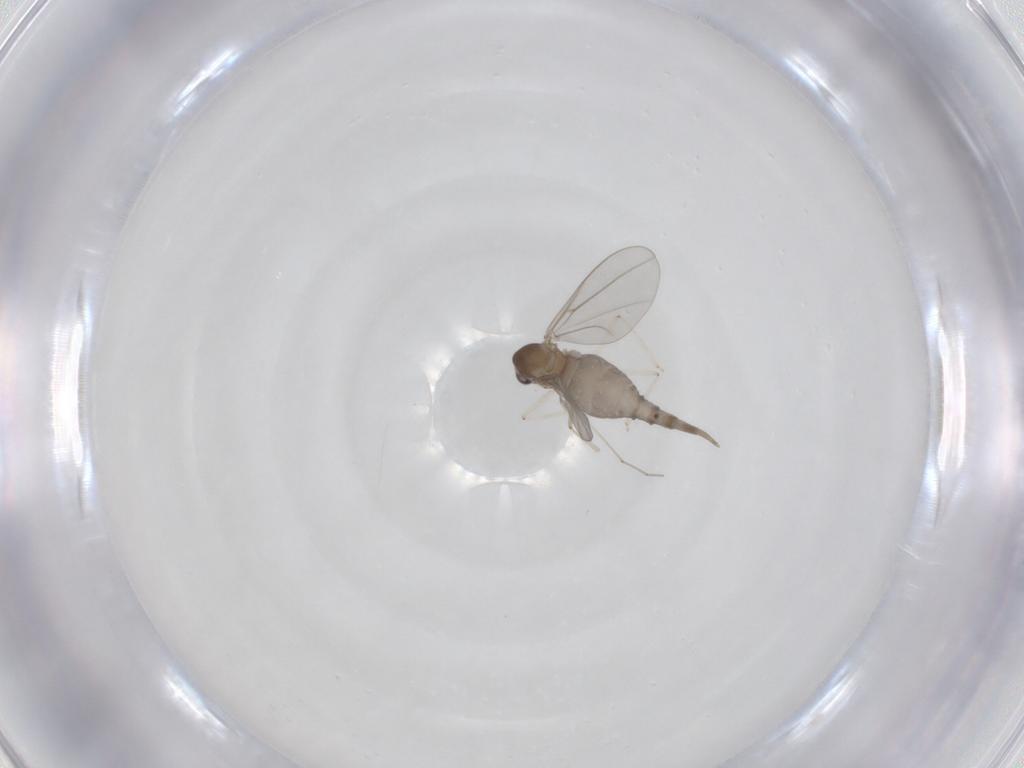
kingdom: Animalia
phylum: Arthropoda
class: Insecta
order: Diptera
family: Cecidomyiidae
